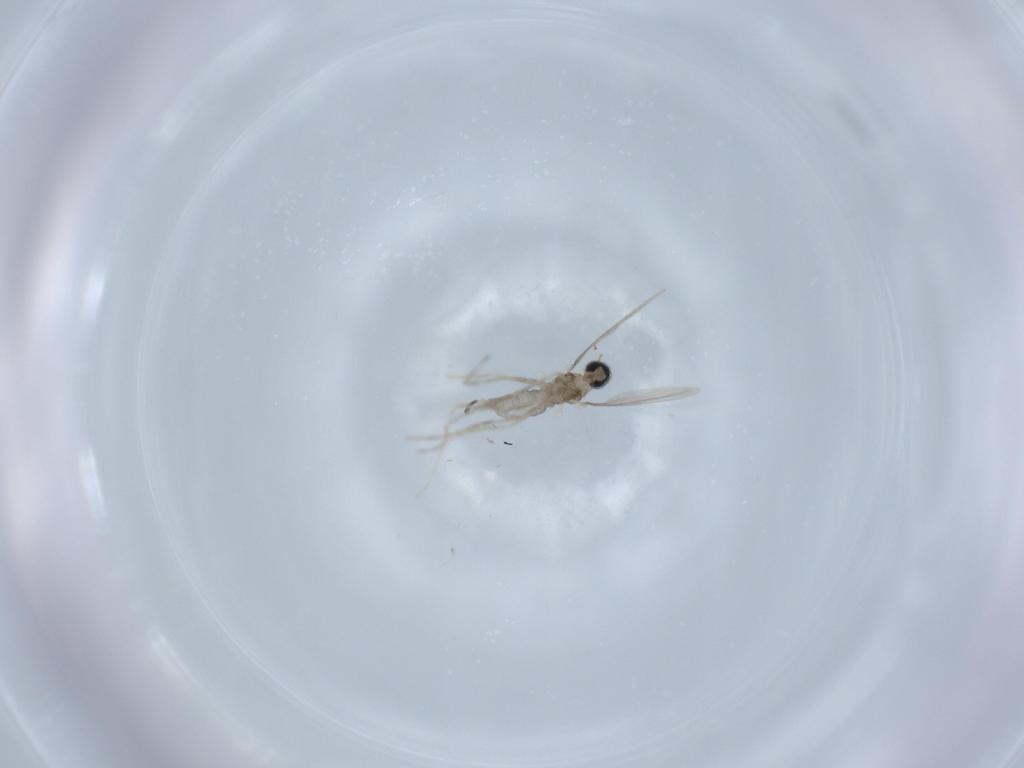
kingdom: Animalia
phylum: Arthropoda
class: Insecta
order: Diptera
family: Cecidomyiidae
